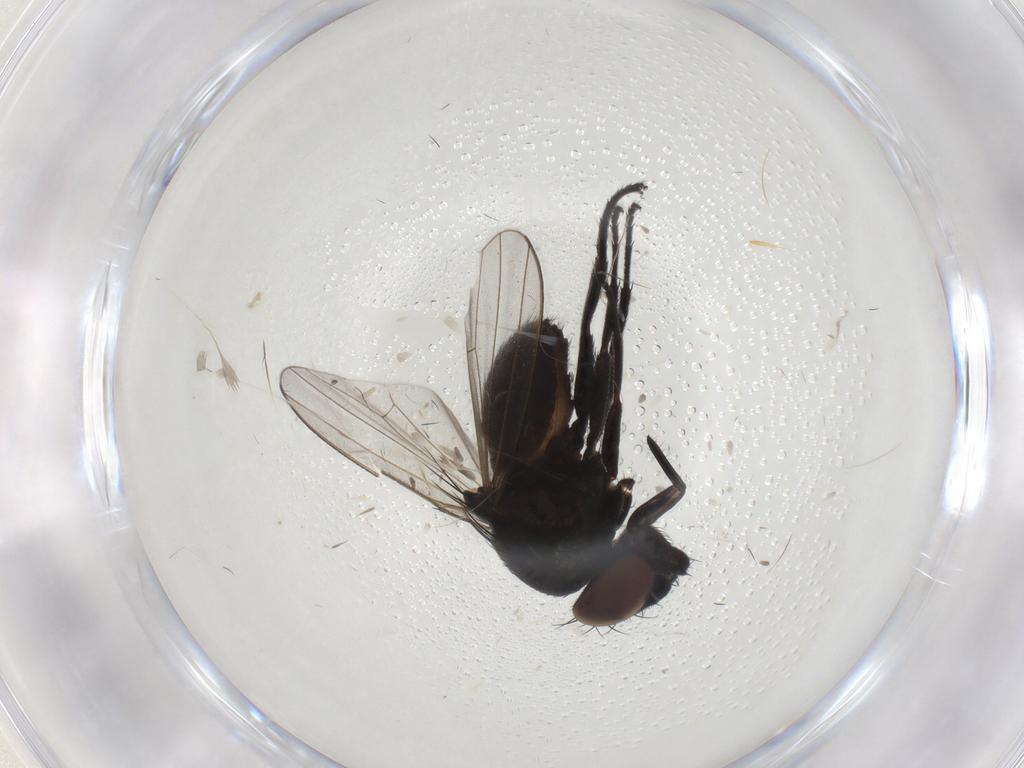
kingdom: Animalia
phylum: Arthropoda
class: Insecta
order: Diptera
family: Milichiidae
